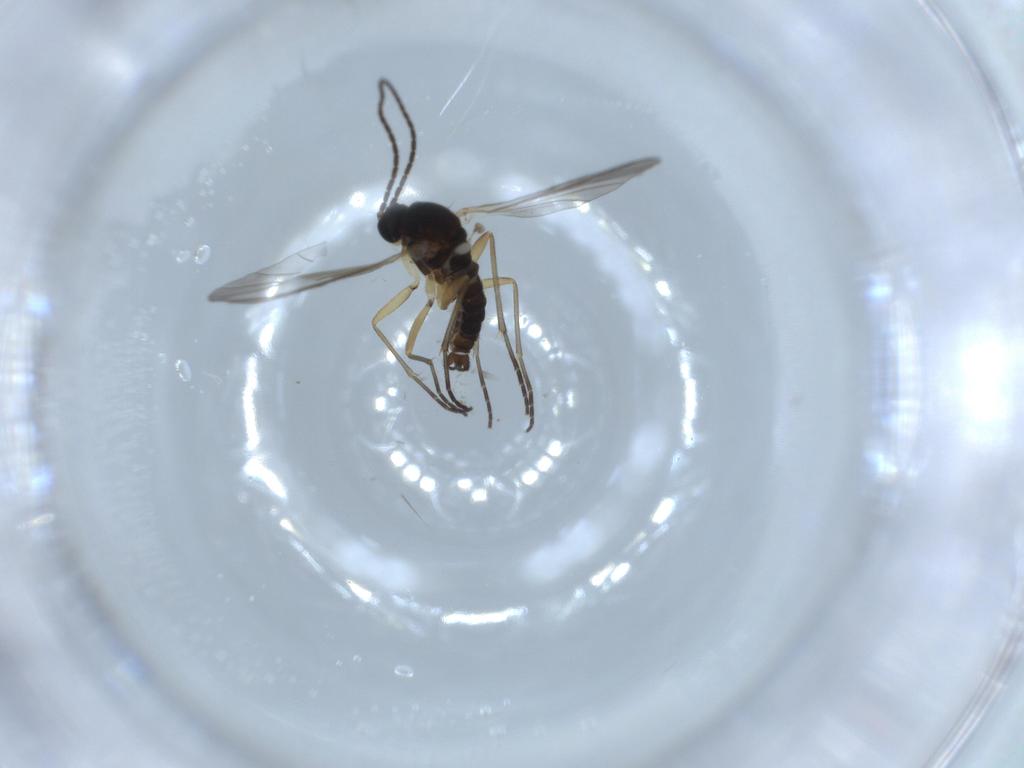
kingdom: Animalia
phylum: Arthropoda
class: Insecta
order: Diptera
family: Sciaridae
